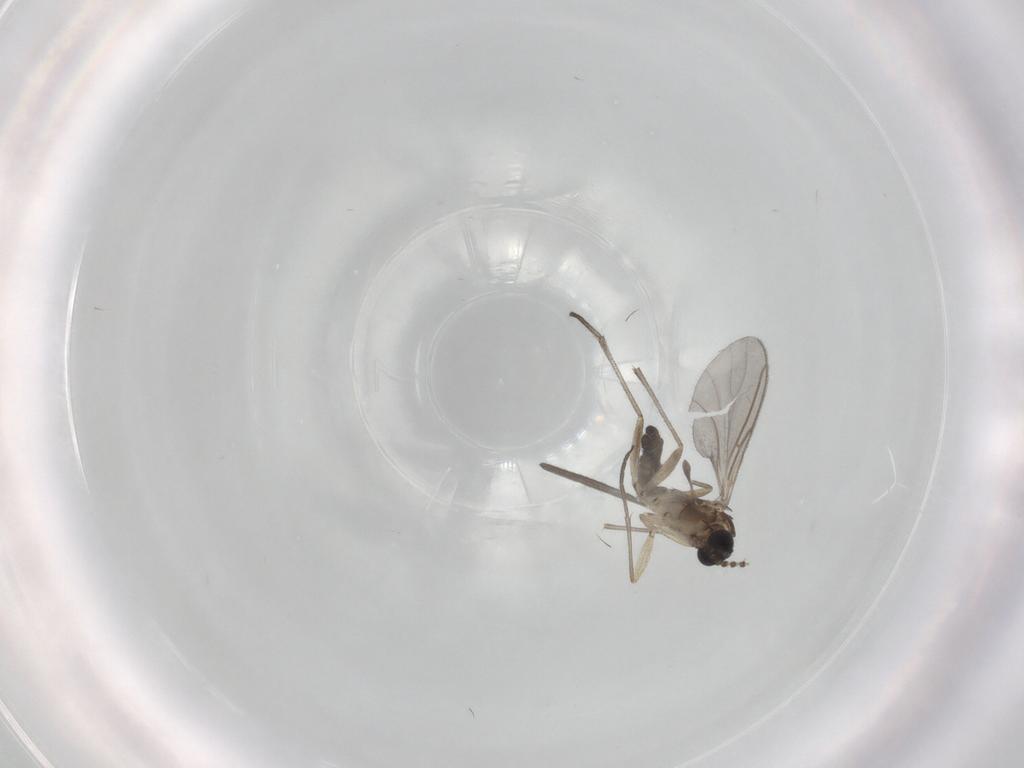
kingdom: Animalia
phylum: Arthropoda
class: Insecta
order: Diptera
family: Sciaridae
